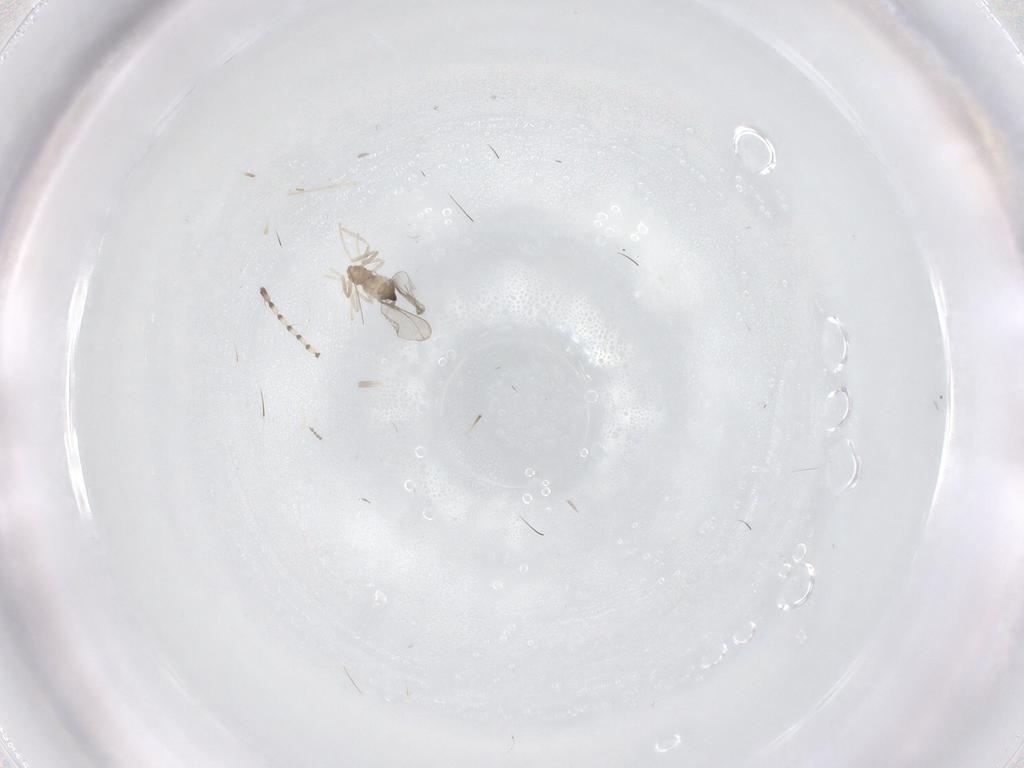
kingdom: Animalia
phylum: Arthropoda
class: Insecta
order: Diptera
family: Cecidomyiidae
